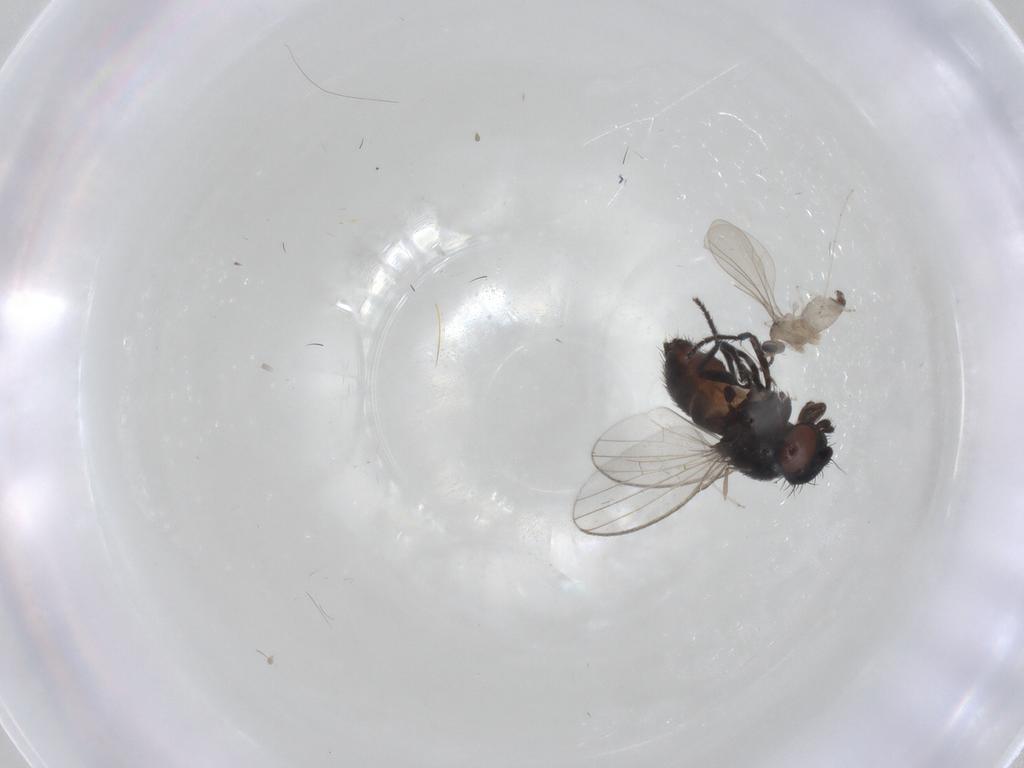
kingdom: Animalia
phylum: Arthropoda
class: Insecta
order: Diptera
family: Milichiidae
